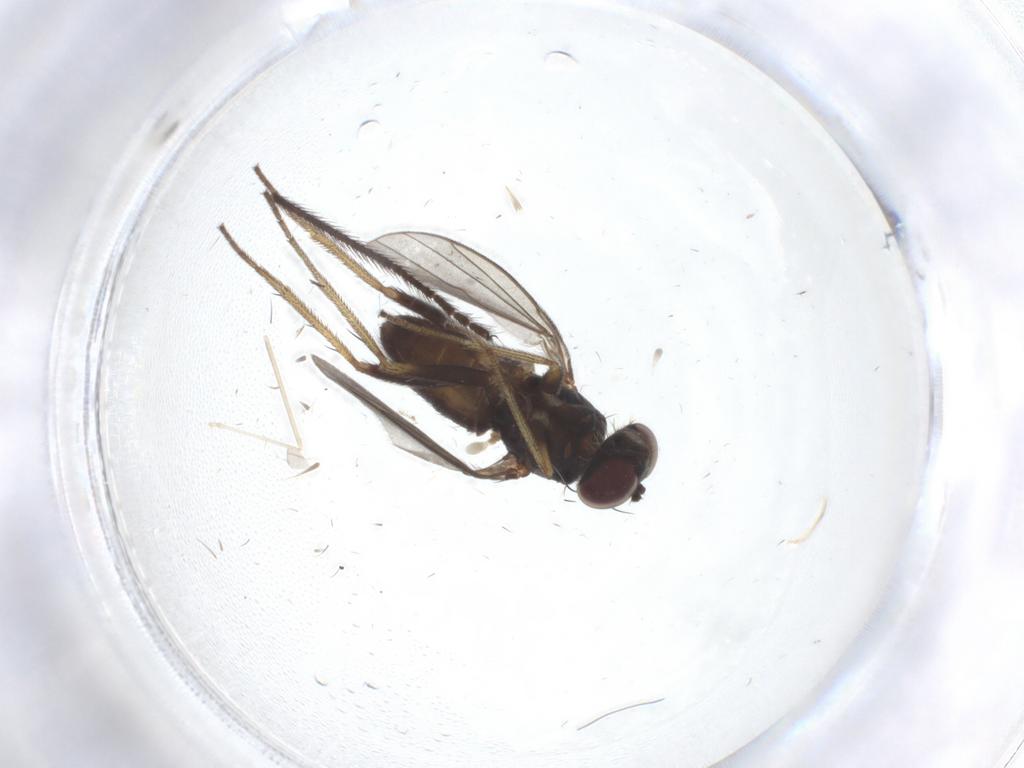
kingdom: Animalia
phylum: Arthropoda
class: Insecta
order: Diptera
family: Limoniidae
